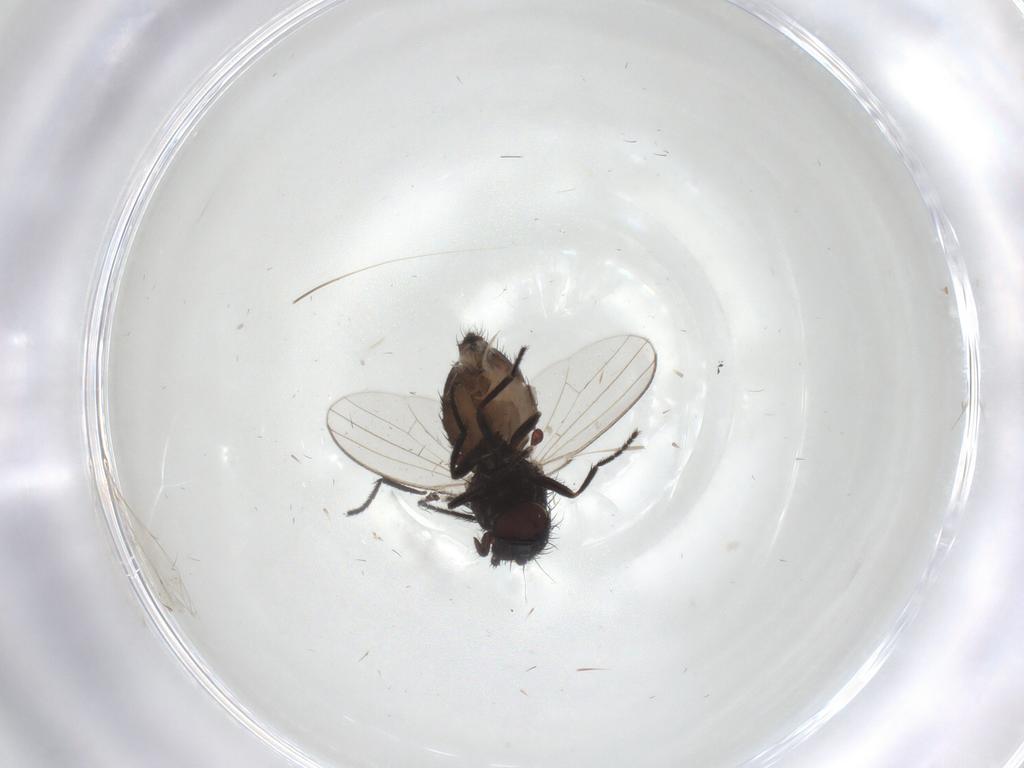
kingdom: Animalia
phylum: Arthropoda
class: Insecta
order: Diptera
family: Milichiidae
